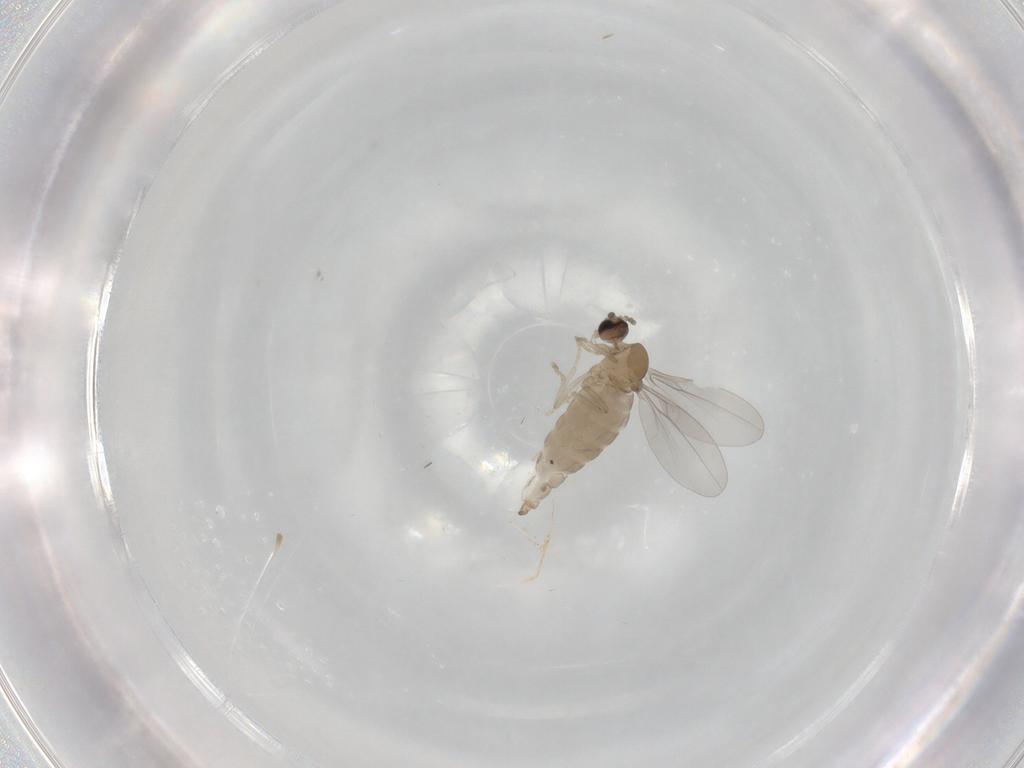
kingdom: Animalia
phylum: Arthropoda
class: Insecta
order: Diptera
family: Cecidomyiidae
